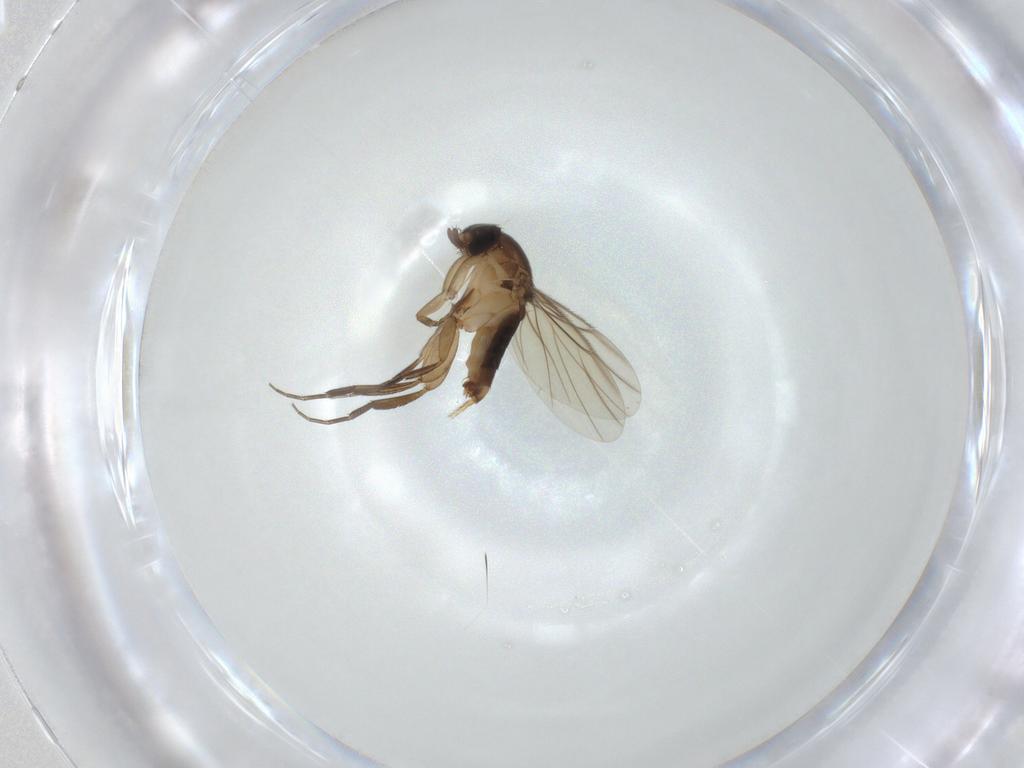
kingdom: Animalia
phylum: Arthropoda
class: Insecta
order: Diptera
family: Phoridae
